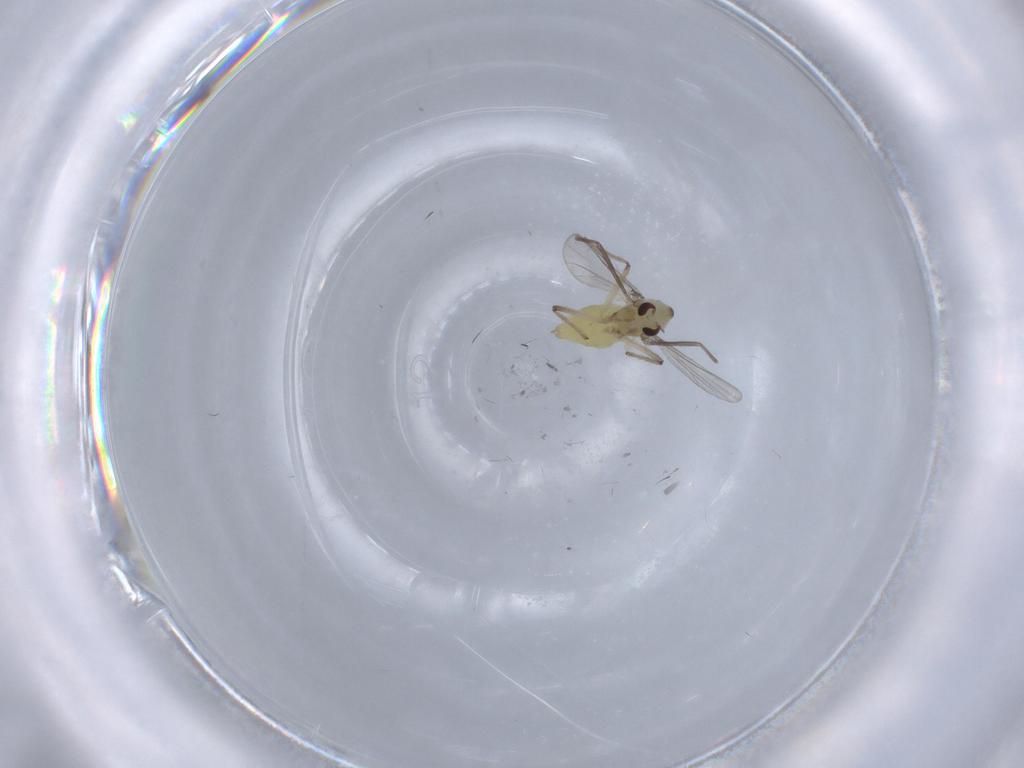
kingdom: Animalia
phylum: Arthropoda
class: Insecta
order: Diptera
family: Chironomidae
